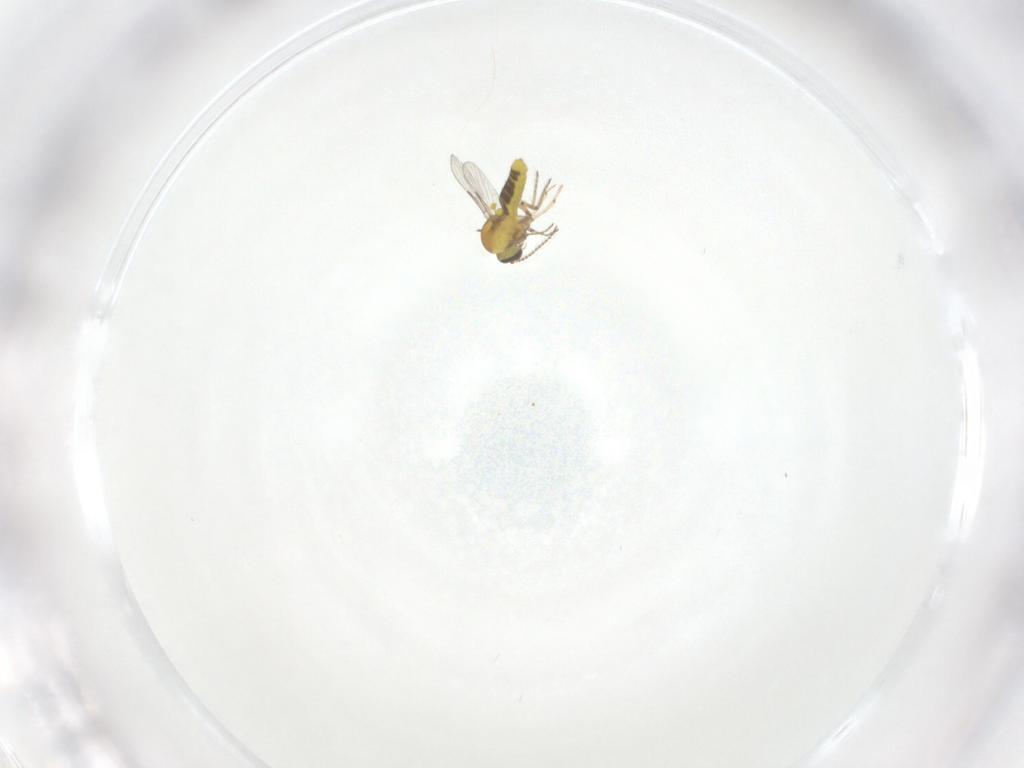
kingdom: Animalia
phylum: Arthropoda
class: Insecta
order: Diptera
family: Ceratopogonidae
